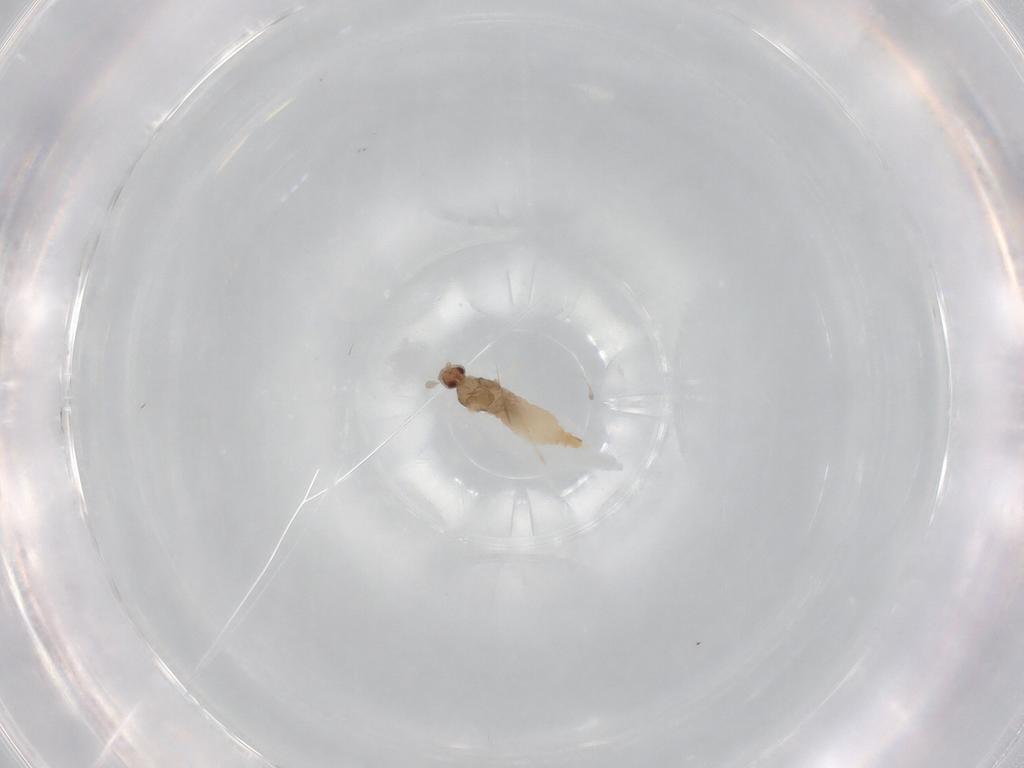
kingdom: Animalia
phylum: Arthropoda
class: Insecta
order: Diptera
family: Cecidomyiidae
